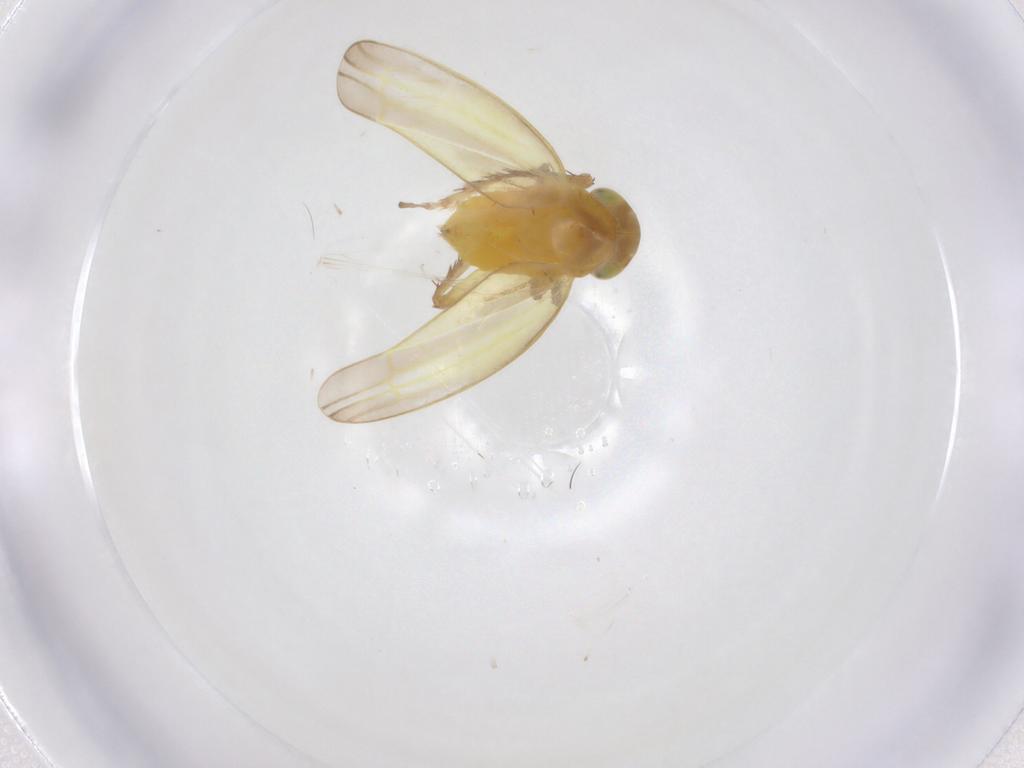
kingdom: Animalia
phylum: Arthropoda
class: Insecta
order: Hemiptera
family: Cicadellidae
